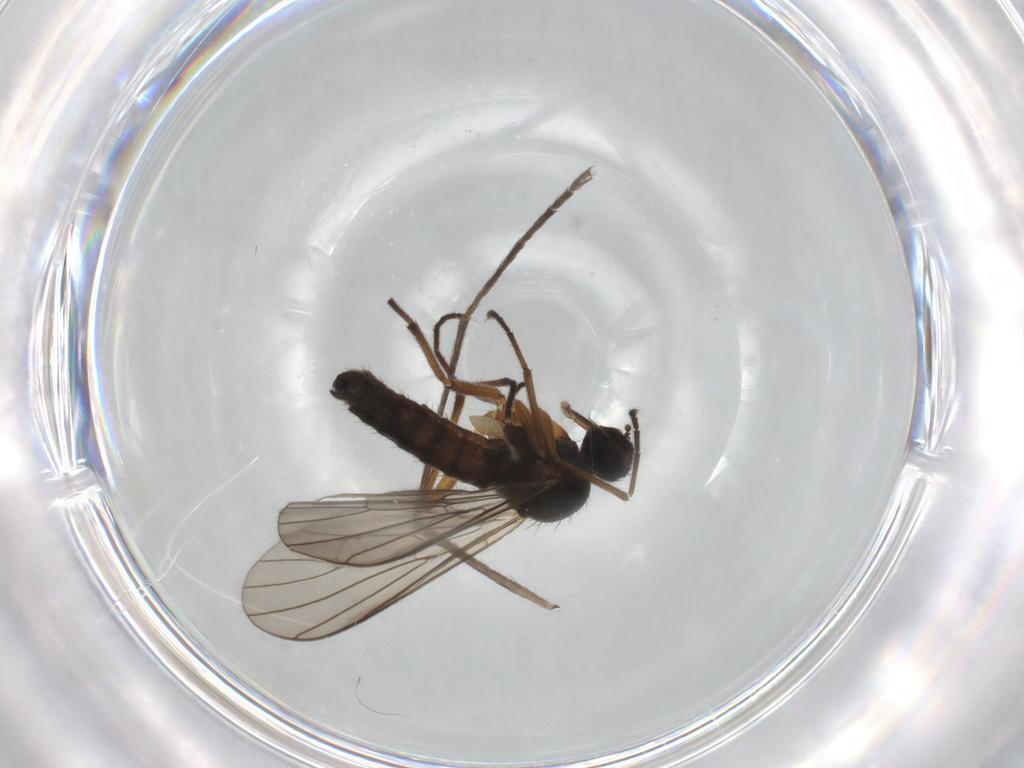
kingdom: Animalia
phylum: Arthropoda
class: Insecta
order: Diptera
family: Empididae
